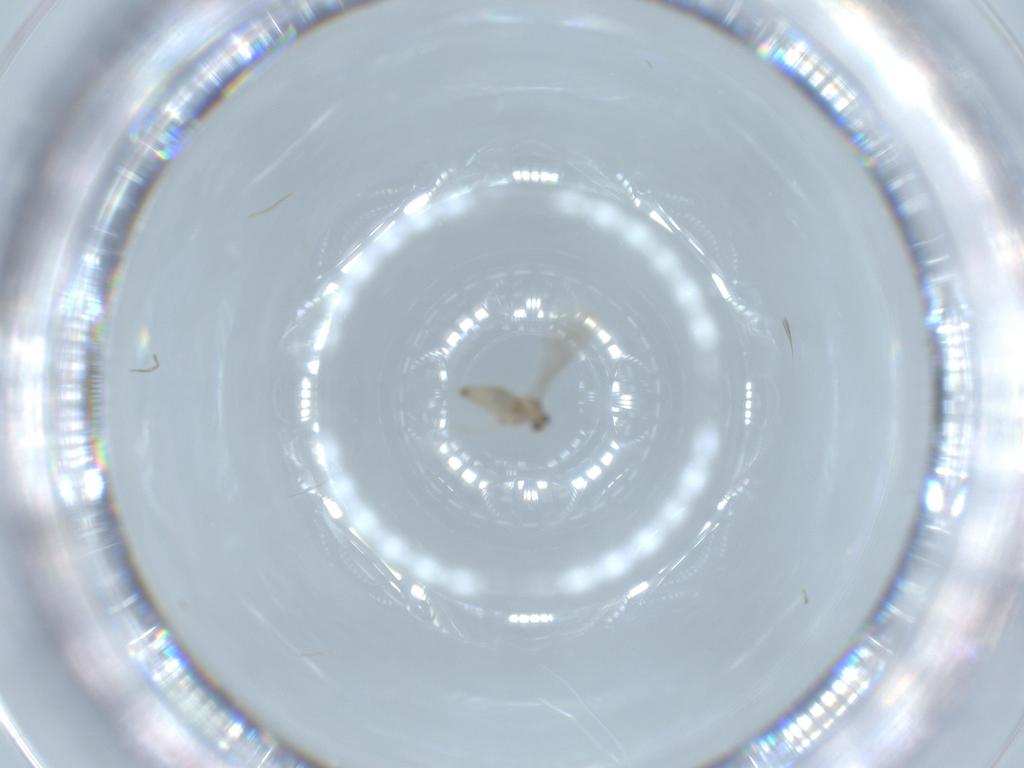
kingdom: Animalia
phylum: Arthropoda
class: Insecta
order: Diptera
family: Cecidomyiidae
